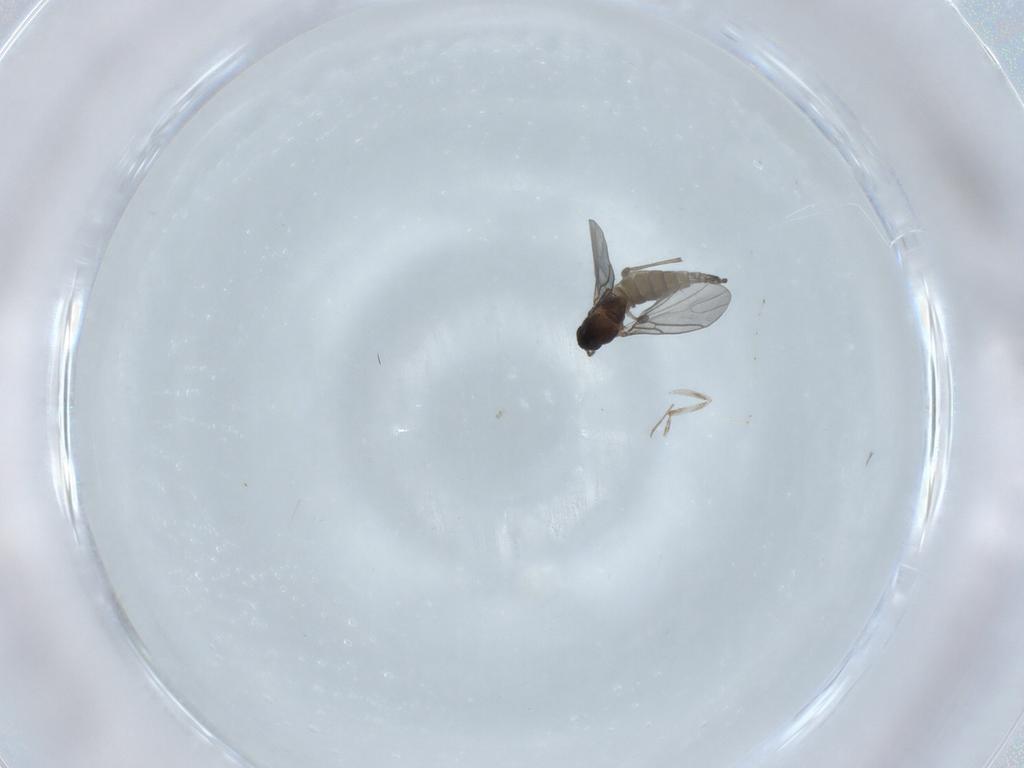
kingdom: Animalia
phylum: Arthropoda
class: Insecta
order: Diptera
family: Sciaridae
